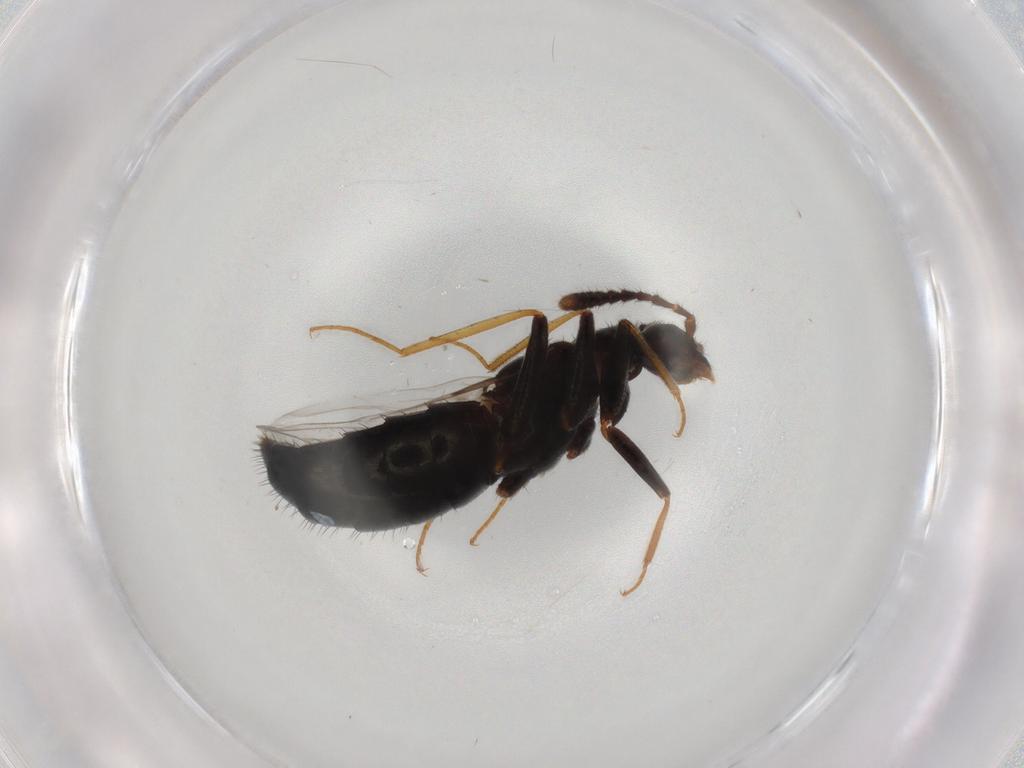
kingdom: Animalia
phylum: Arthropoda
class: Insecta
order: Coleoptera
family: Staphylinidae
